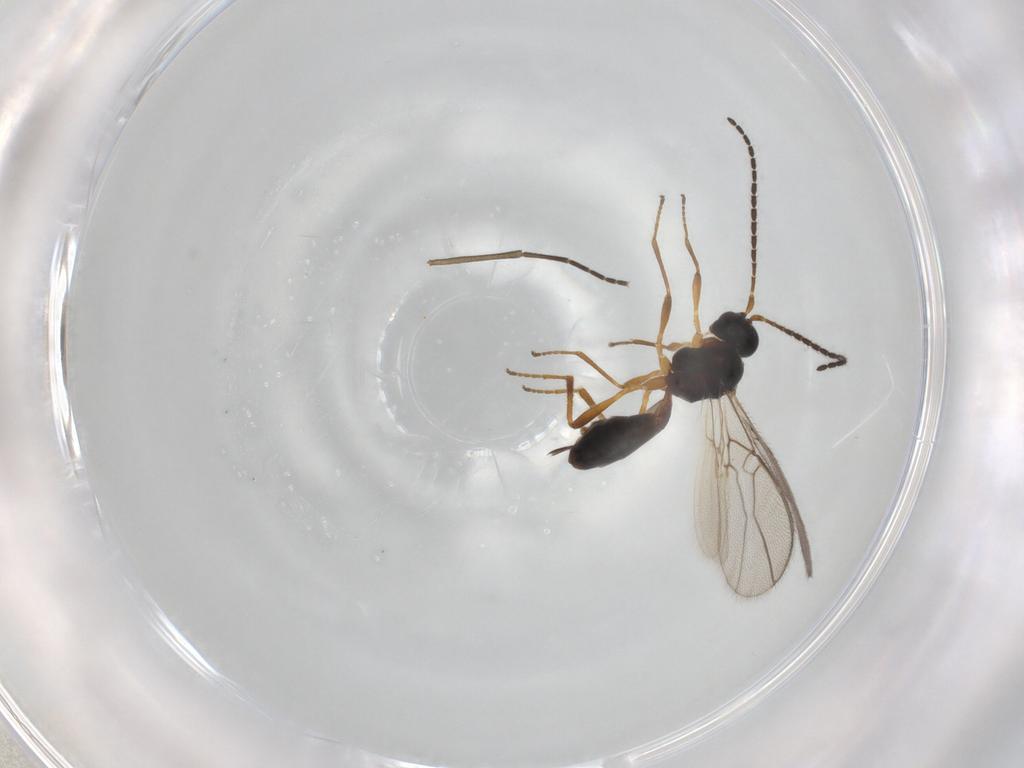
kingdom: Animalia
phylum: Arthropoda
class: Insecta
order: Hymenoptera
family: Braconidae
